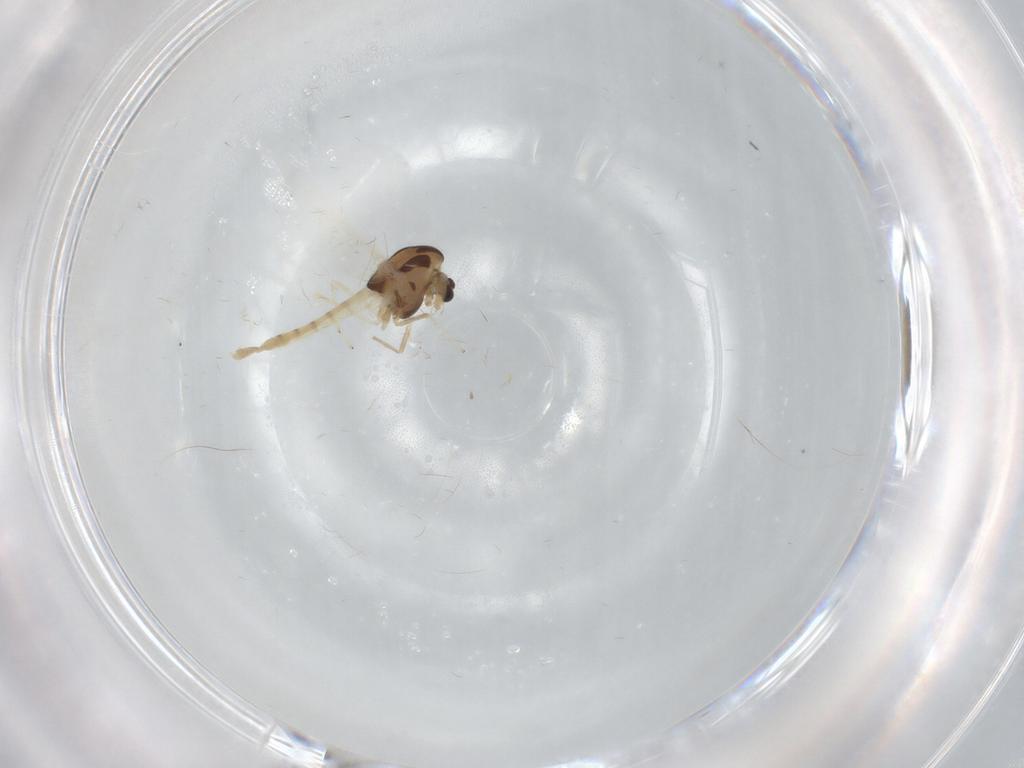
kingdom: Animalia
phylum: Arthropoda
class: Insecta
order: Diptera
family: Chironomidae
